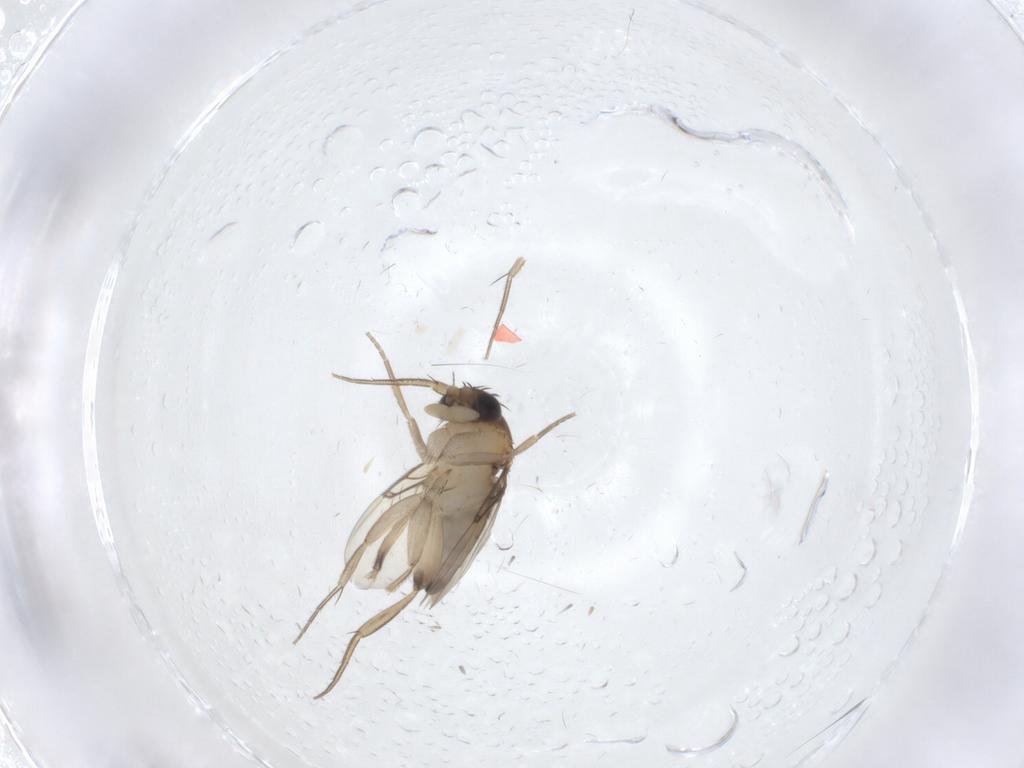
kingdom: Animalia
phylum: Arthropoda
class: Insecta
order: Diptera
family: Phoridae
